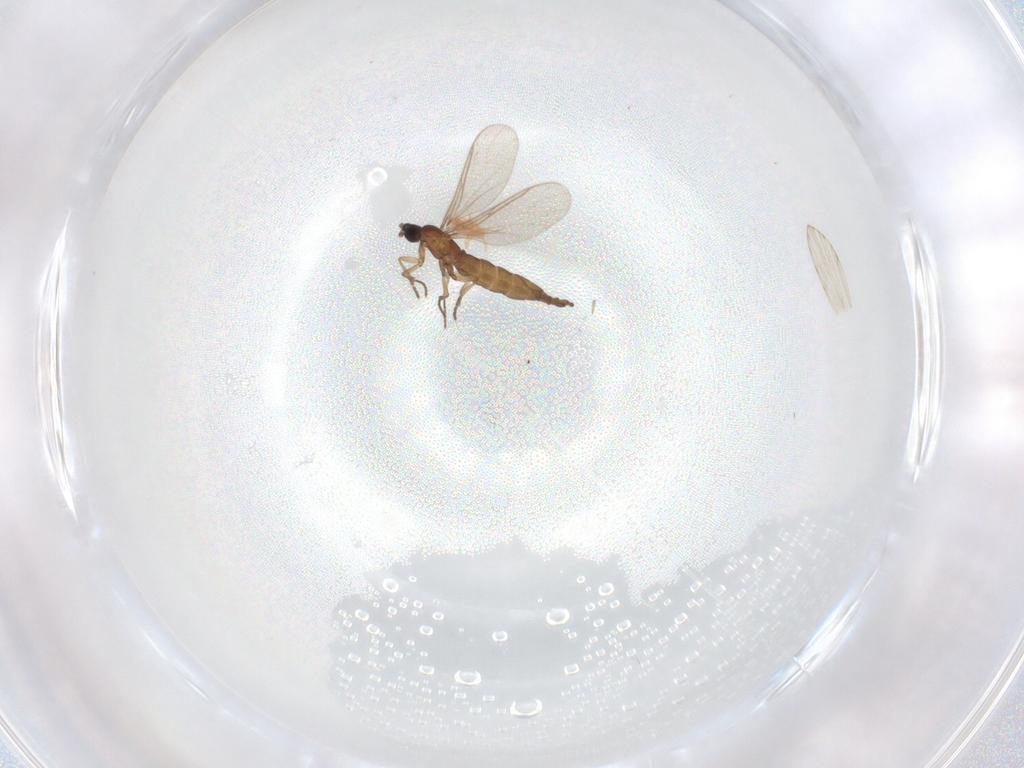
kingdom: Animalia
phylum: Arthropoda
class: Insecta
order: Diptera
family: Sciaridae
